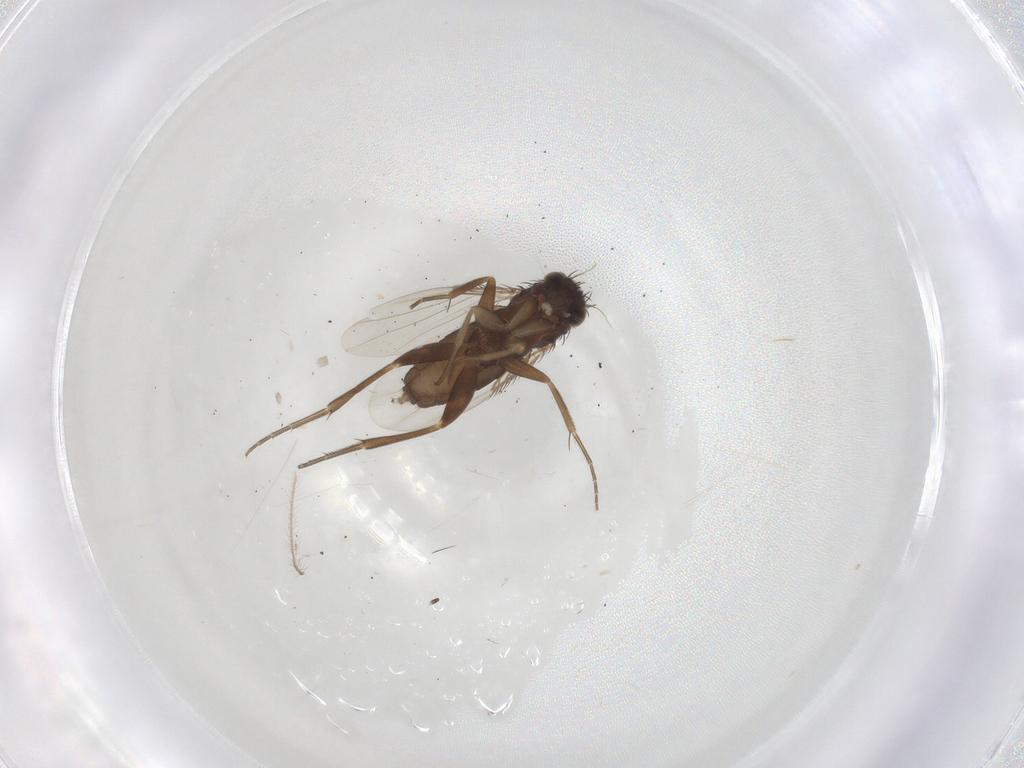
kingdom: Animalia
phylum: Arthropoda
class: Insecta
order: Diptera
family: Phoridae
